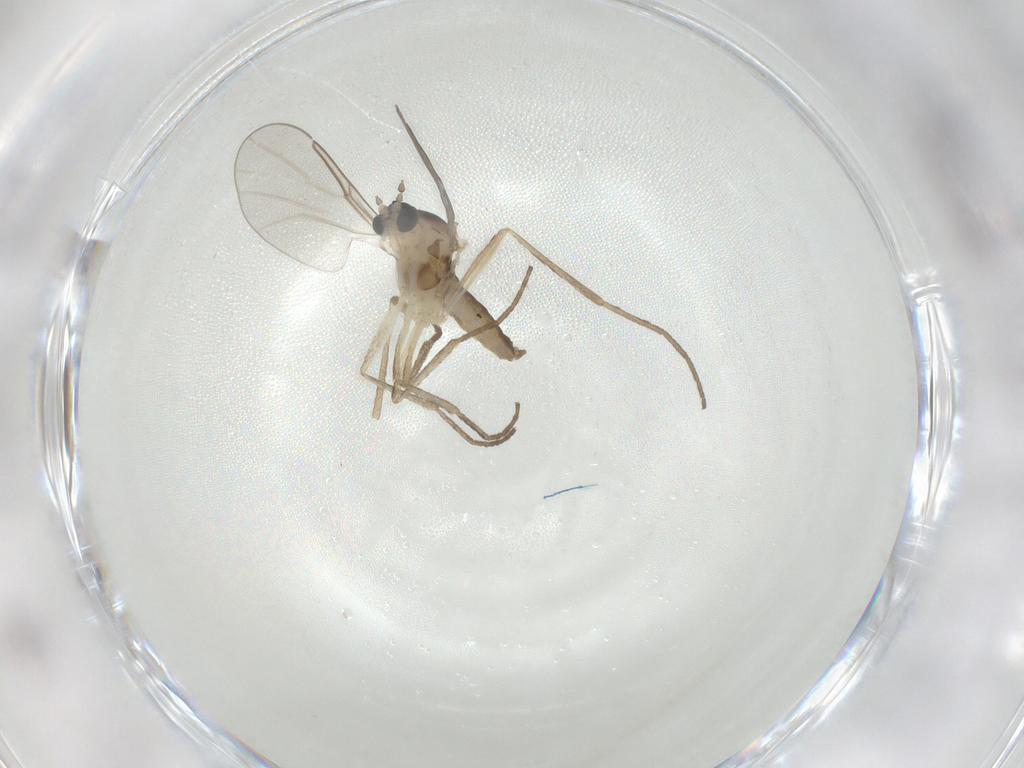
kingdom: Animalia
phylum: Arthropoda
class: Insecta
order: Diptera
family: Cecidomyiidae
